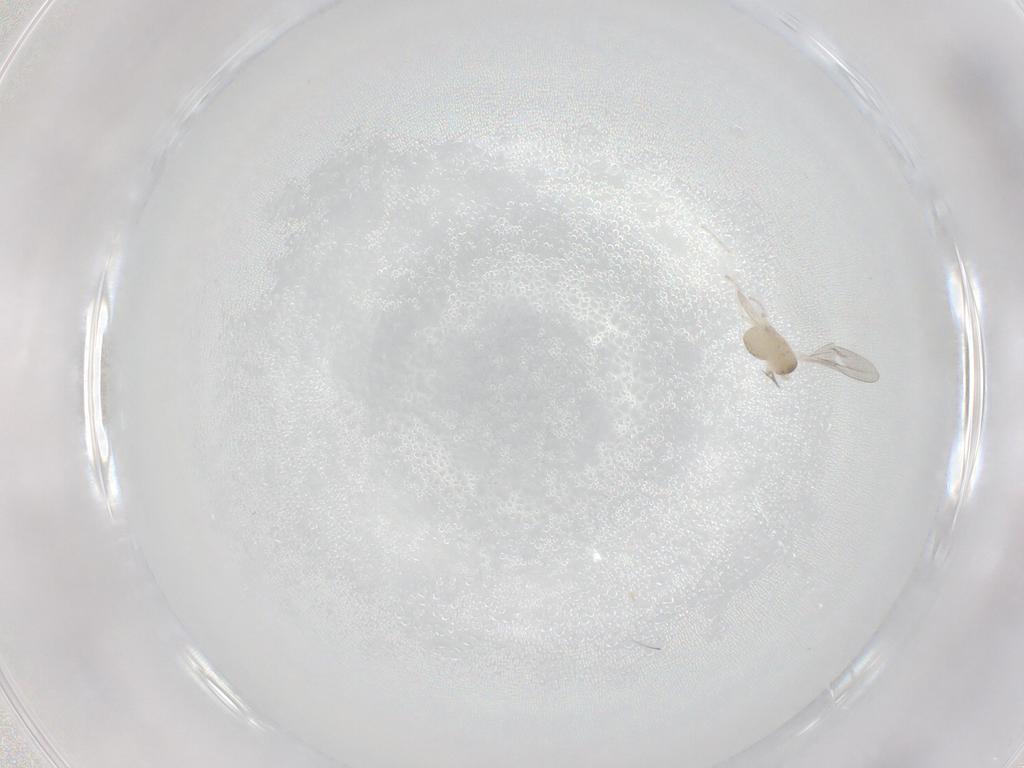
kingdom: Animalia
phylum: Arthropoda
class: Insecta
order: Diptera
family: Cecidomyiidae
